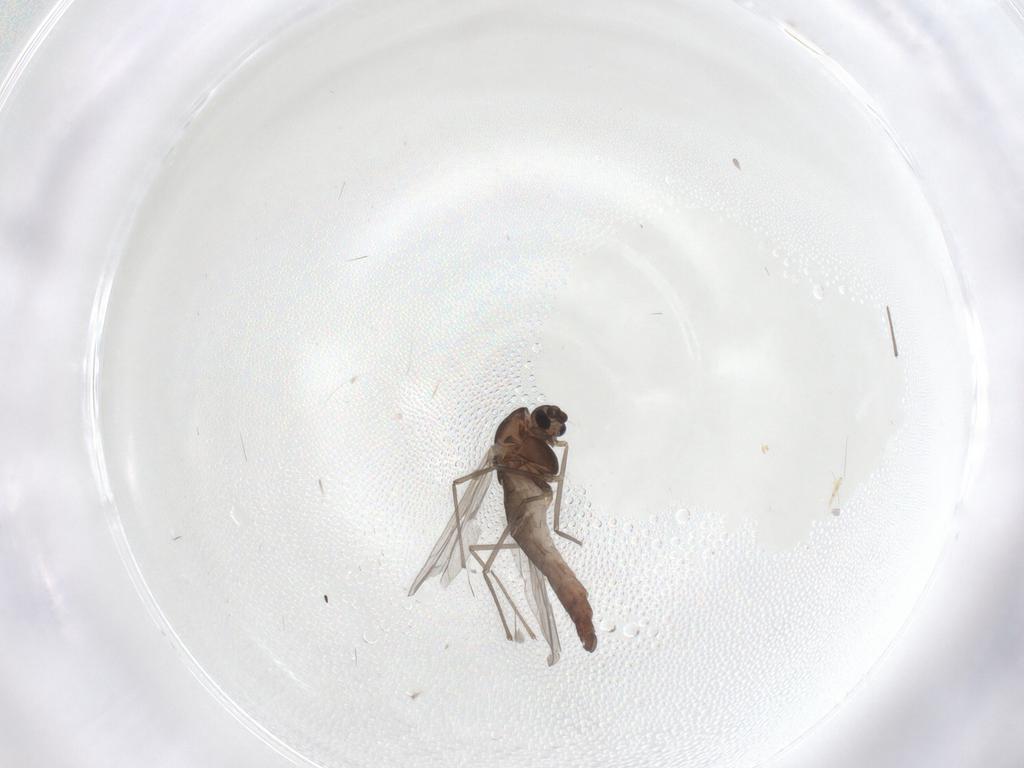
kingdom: Animalia
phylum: Arthropoda
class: Insecta
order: Diptera
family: Chironomidae
